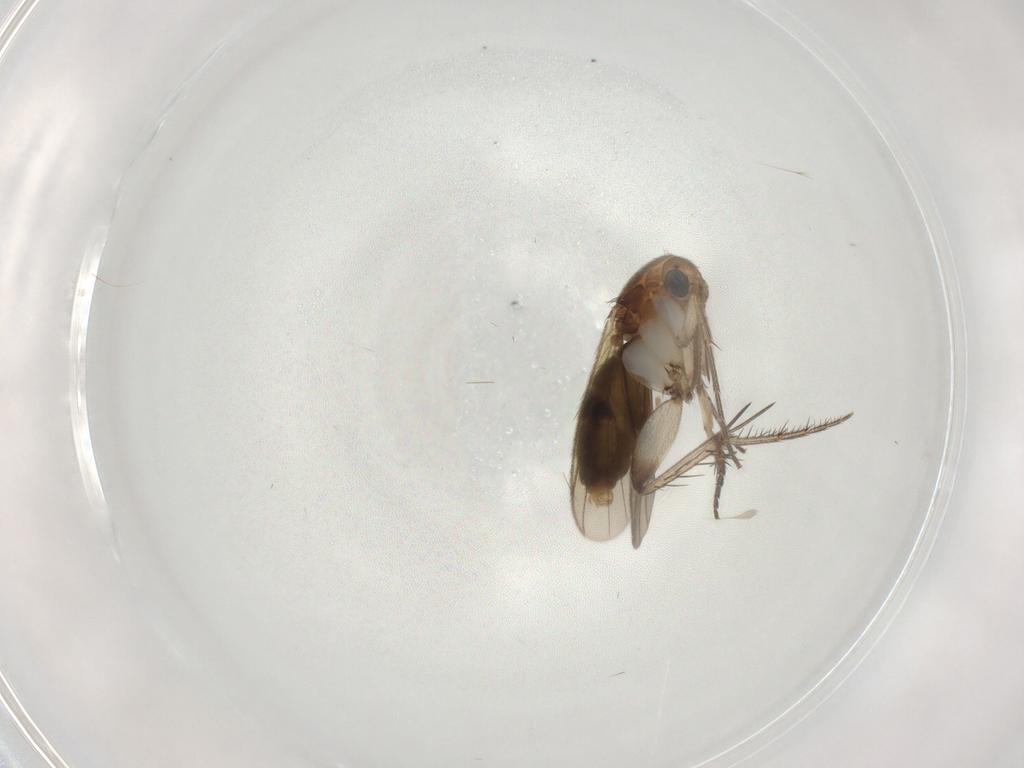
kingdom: Animalia
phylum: Arthropoda
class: Insecta
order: Diptera
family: Mycetophilidae
